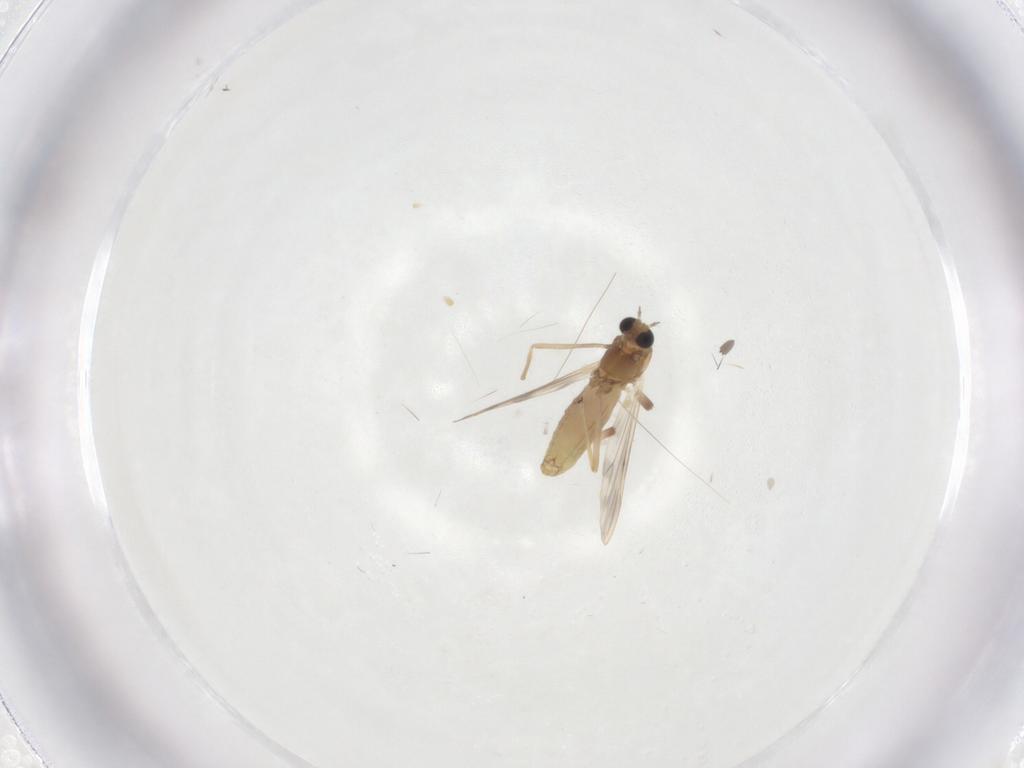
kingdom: Animalia
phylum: Arthropoda
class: Insecta
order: Diptera
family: Chironomidae
